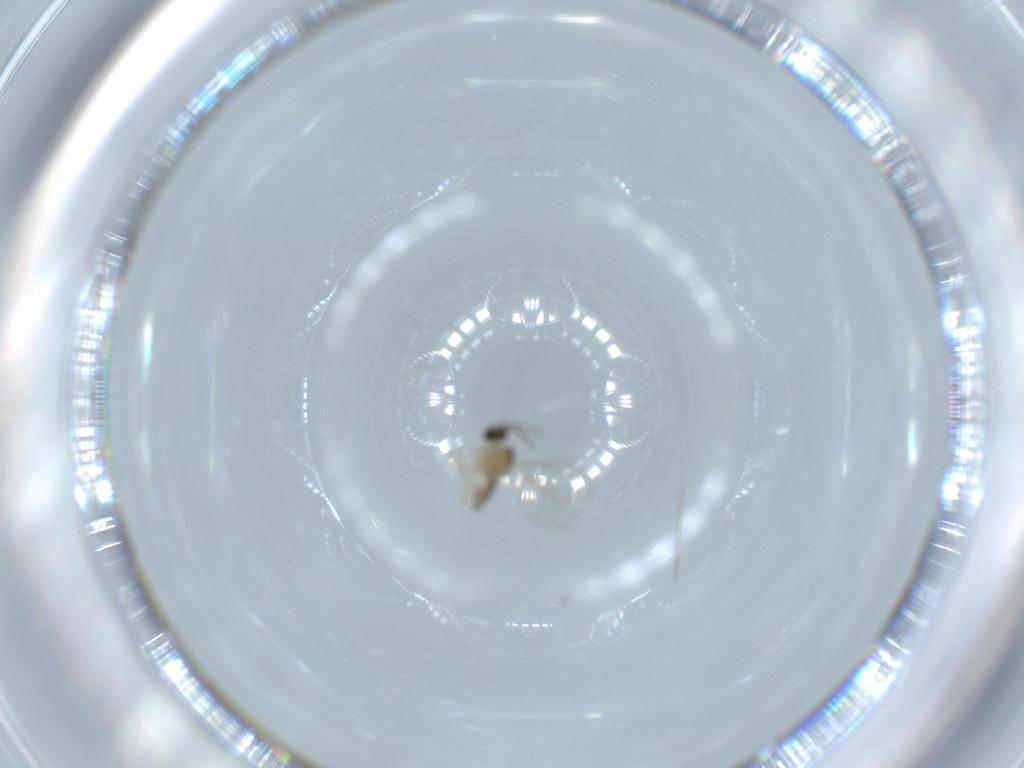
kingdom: Animalia
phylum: Arthropoda
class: Insecta
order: Diptera
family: Cecidomyiidae
